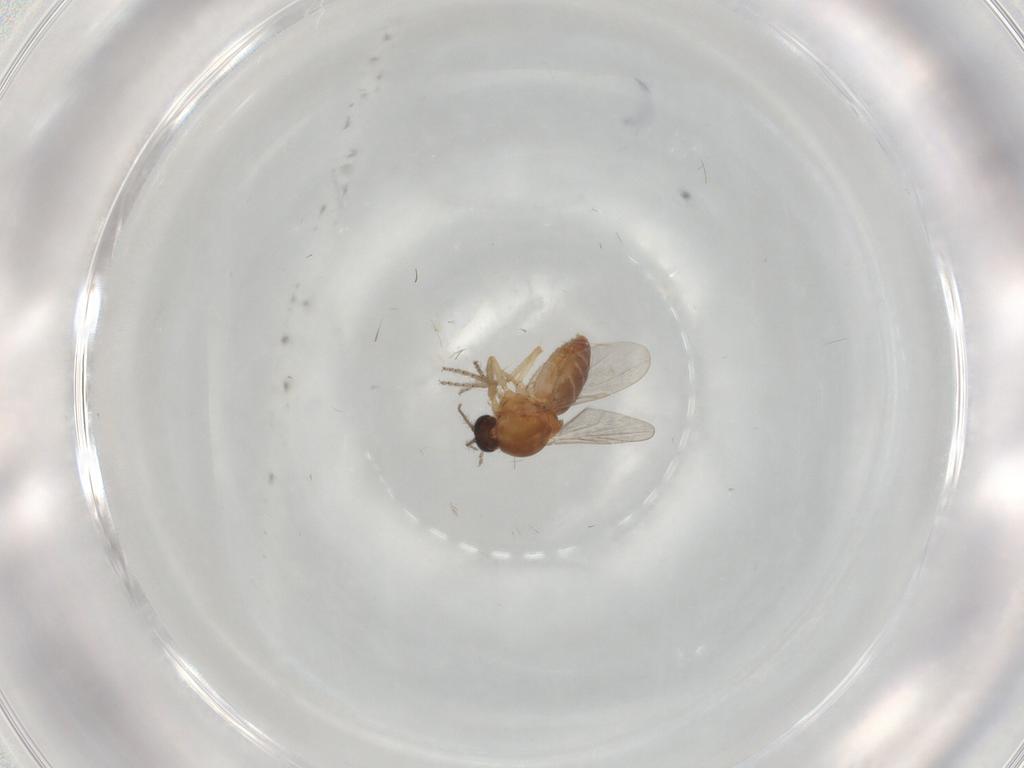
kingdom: Animalia
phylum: Arthropoda
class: Insecta
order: Diptera
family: Ceratopogonidae
